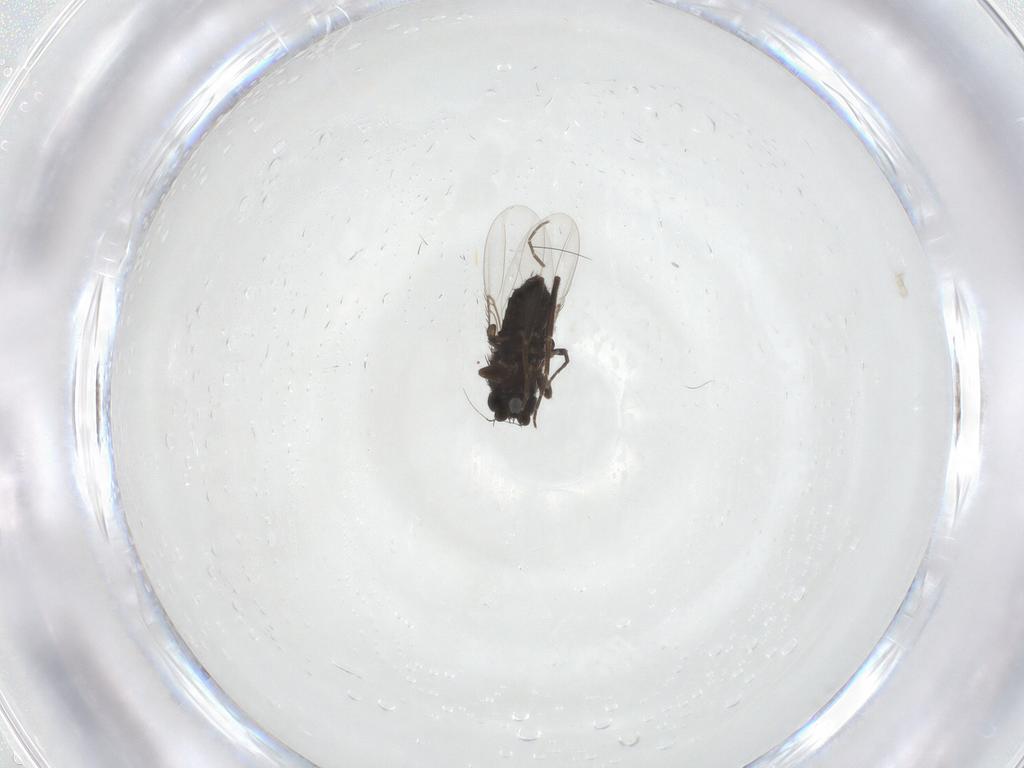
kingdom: Animalia
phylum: Arthropoda
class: Insecta
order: Diptera
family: Phoridae
